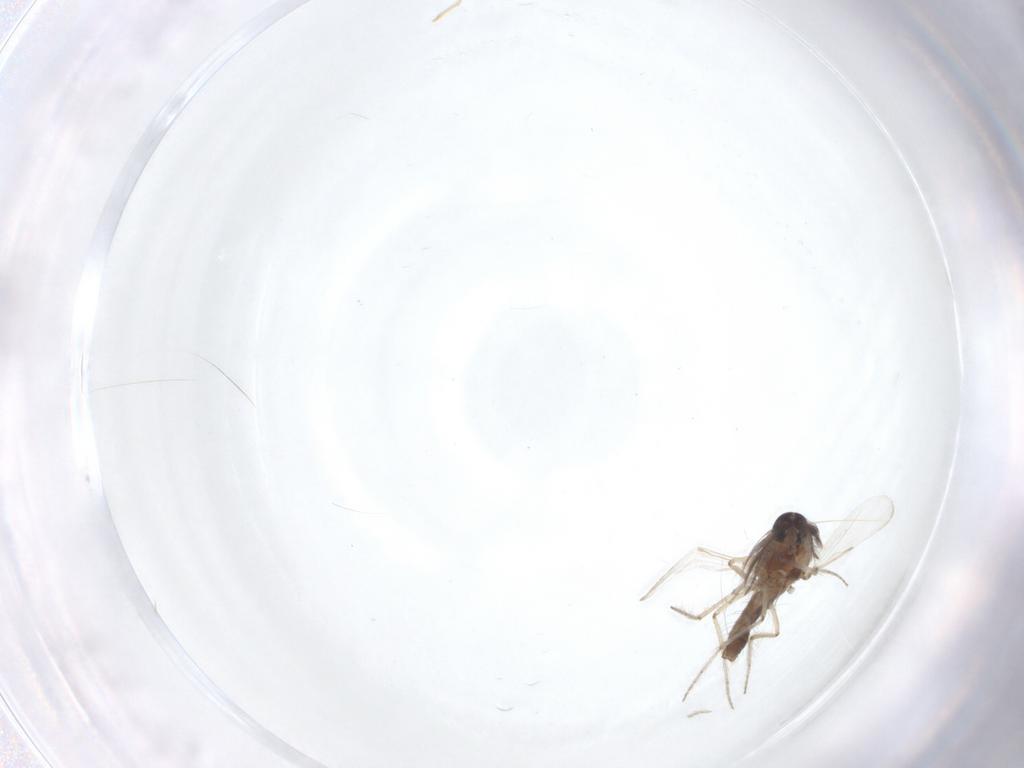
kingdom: Animalia
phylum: Arthropoda
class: Insecta
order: Diptera
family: Ceratopogonidae
